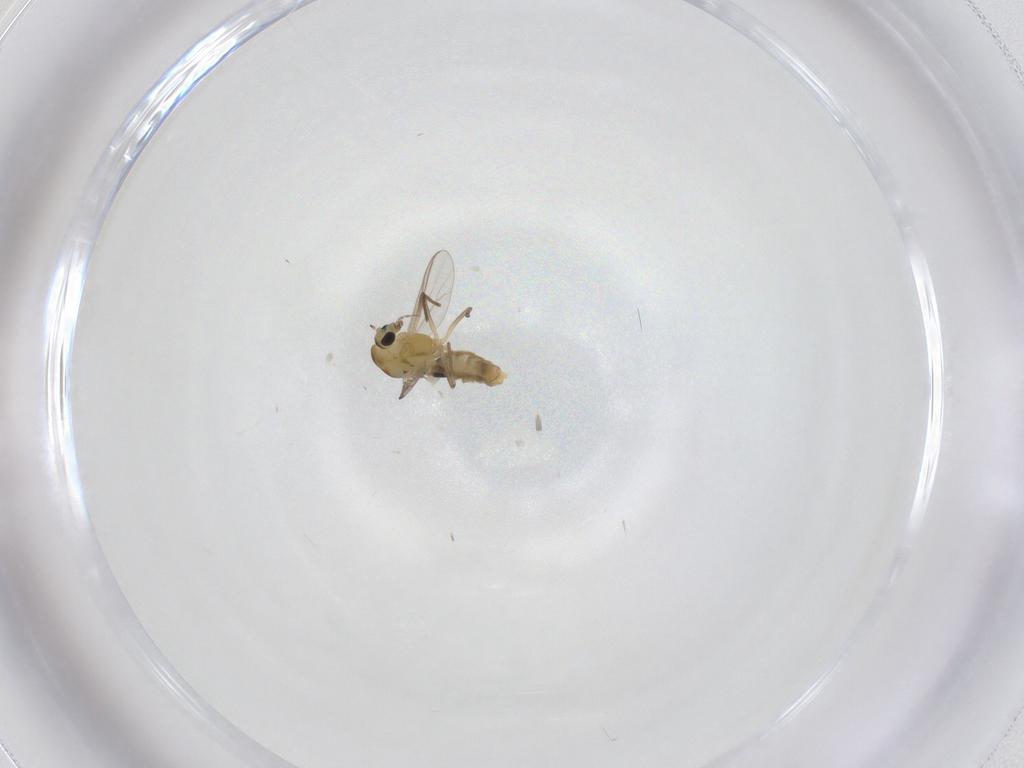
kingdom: Animalia
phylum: Arthropoda
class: Insecta
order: Diptera
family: Chironomidae
